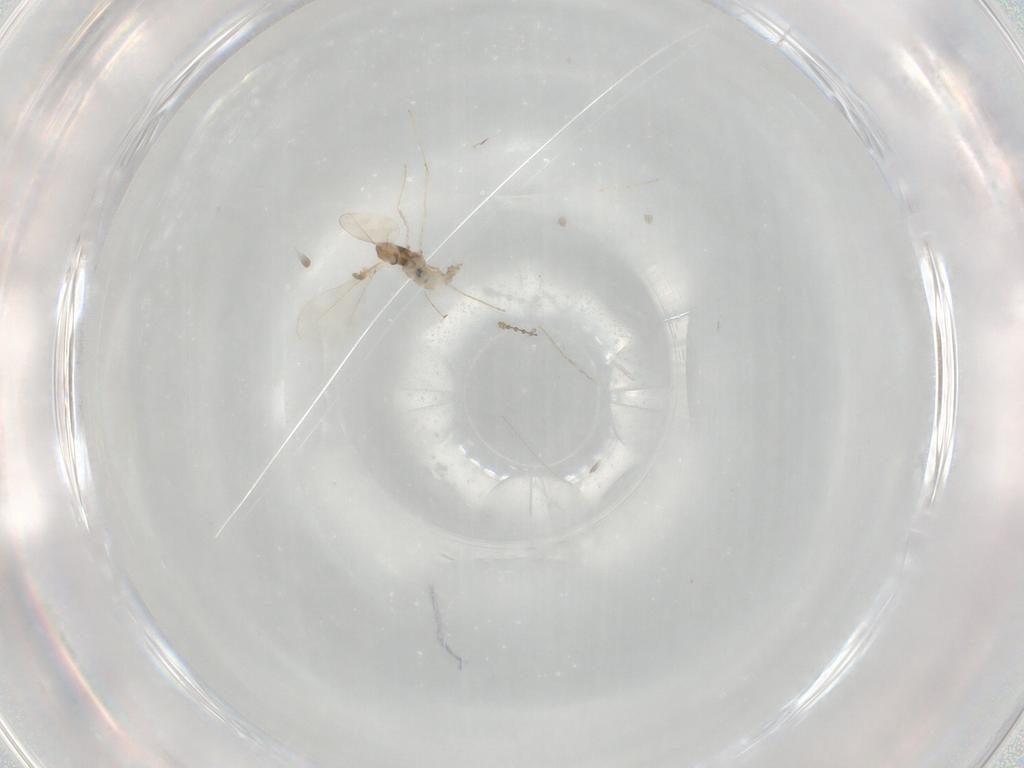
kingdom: Animalia
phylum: Arthropoda
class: Insecta
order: Diptera
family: Cecidomyiidae
